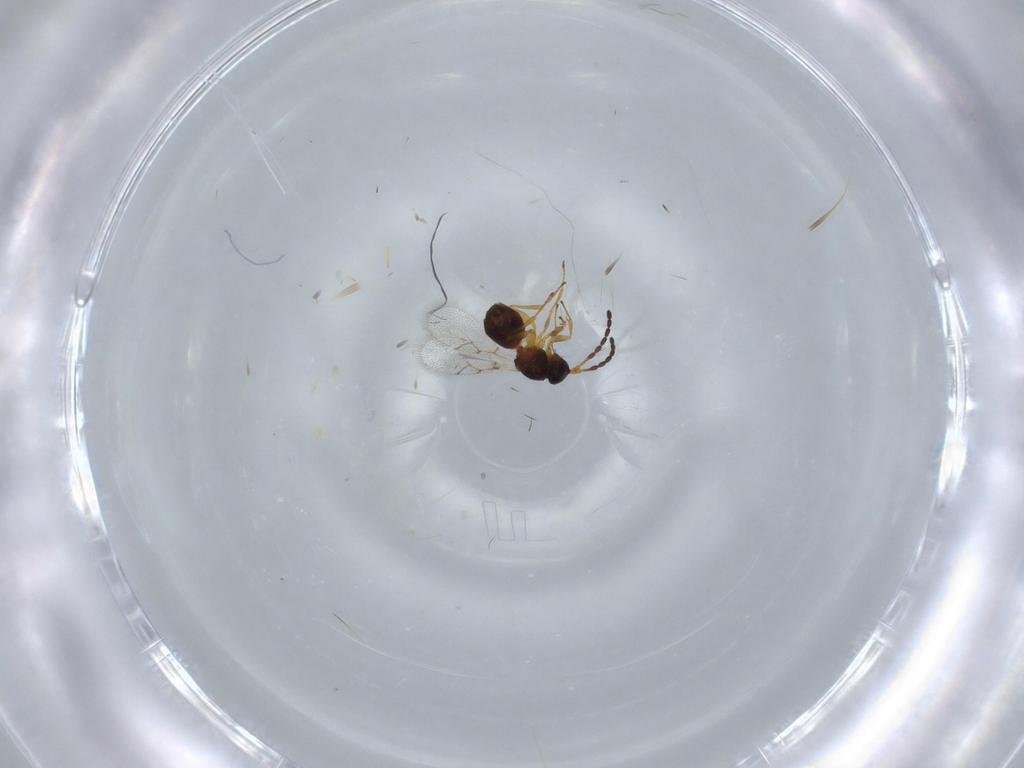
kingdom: Animalia
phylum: Arthropoda
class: Insecta
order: Hymenoptera
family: Figitidae
